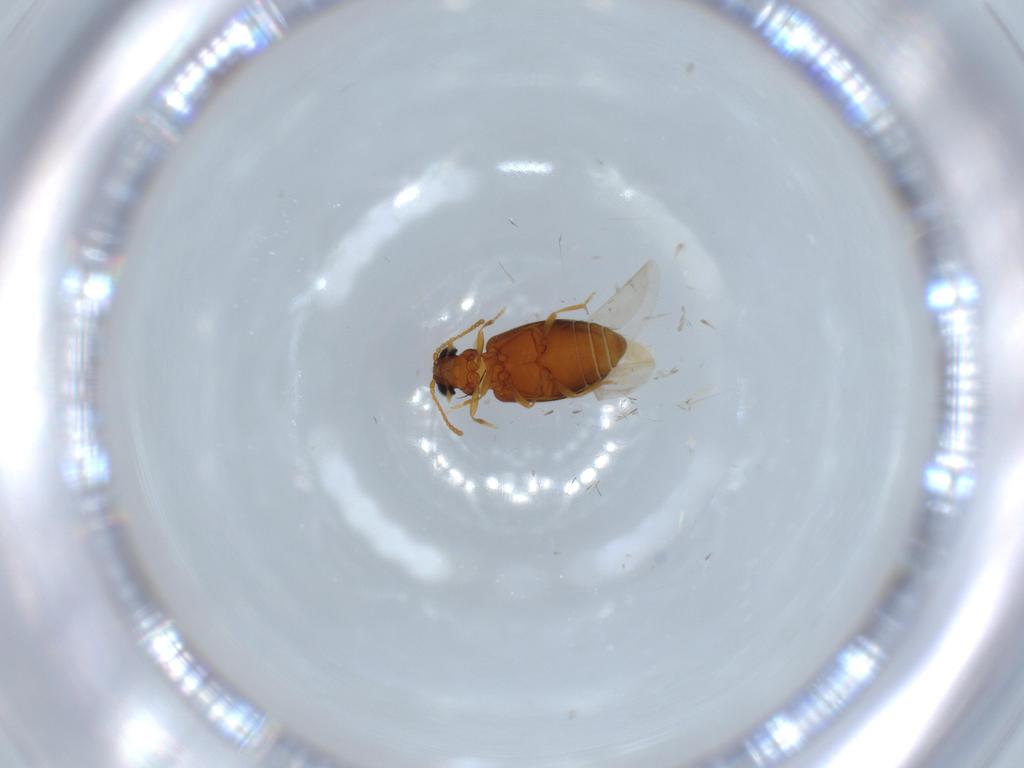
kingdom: Animalia
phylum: Arthropoda
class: Insecta
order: Coleoptera
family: Aderidae
